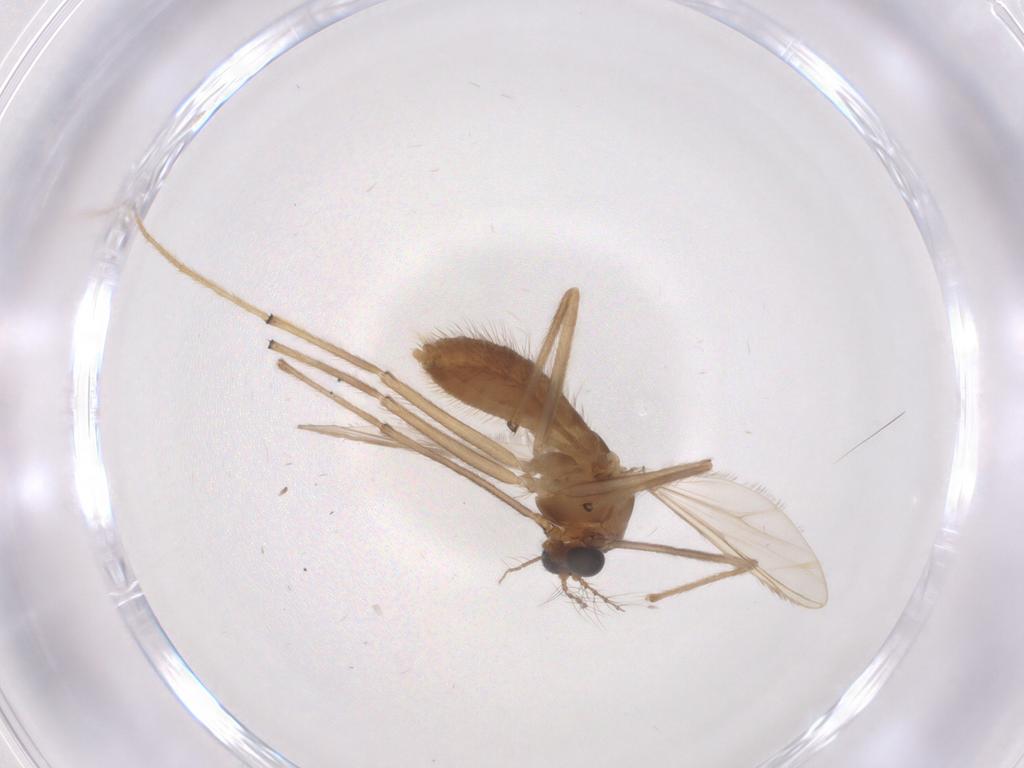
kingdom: Animalia
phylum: Arthropoda
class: Insecta
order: Diptera
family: Chironomidae
